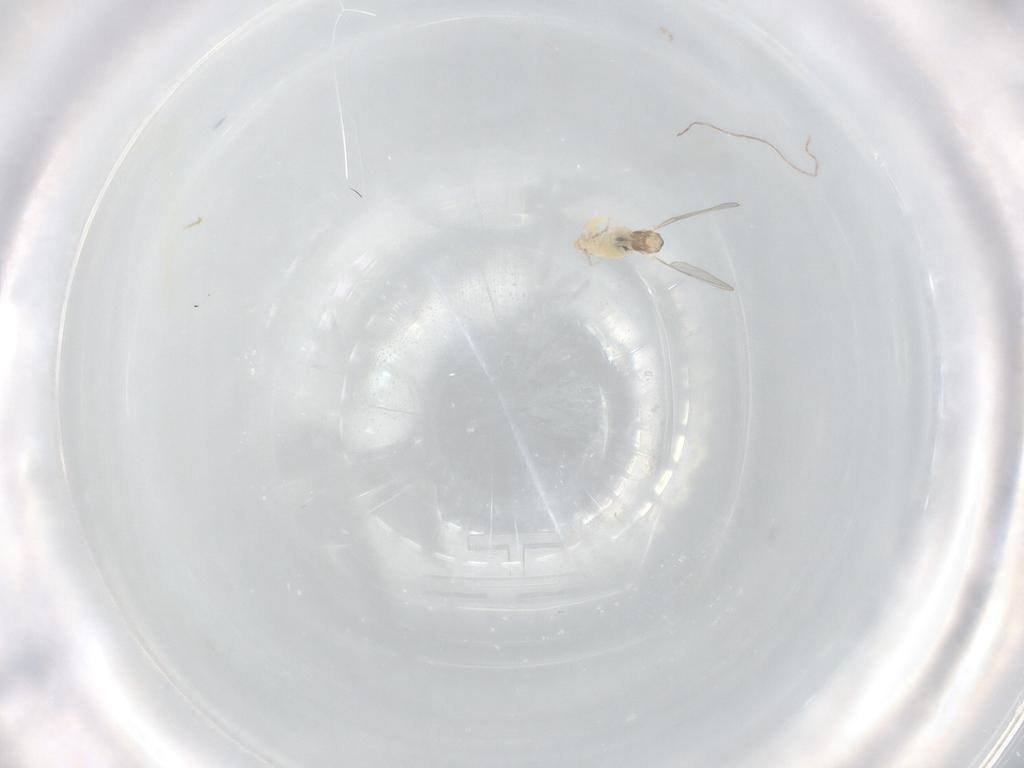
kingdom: Animalia
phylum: Arthropoda
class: Insecta
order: Diptera
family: Cecidomyiidae
